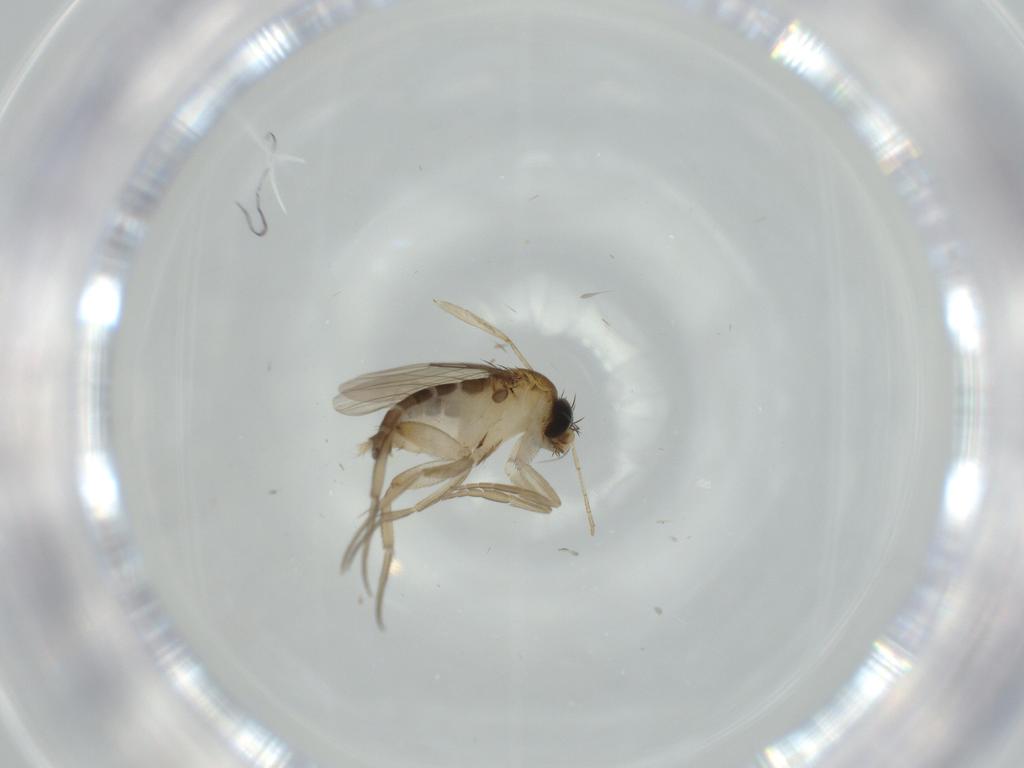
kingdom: Animalia
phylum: Arthropoda
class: Insecta
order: Diptera
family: Psychodidae
